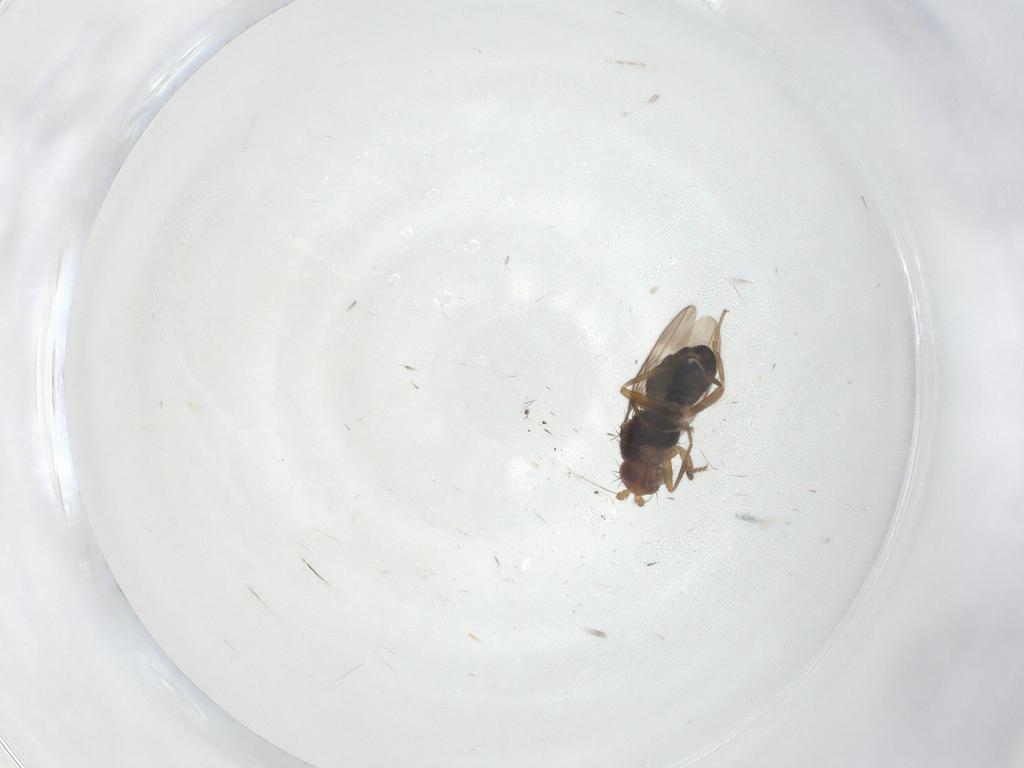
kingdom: Animalia
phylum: Arthropoda
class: Insecta
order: Diptera
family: Sphaeroceridae
